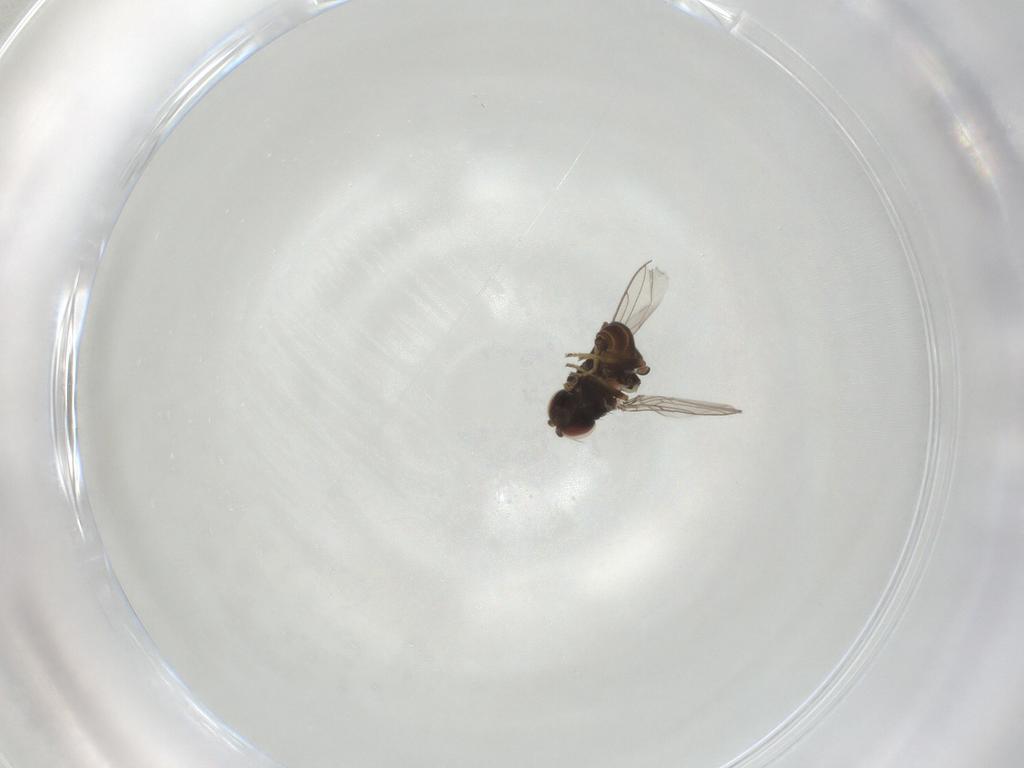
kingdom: Animalia
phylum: Arthropoda
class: Insecta
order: Diptera
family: Chloropidae
